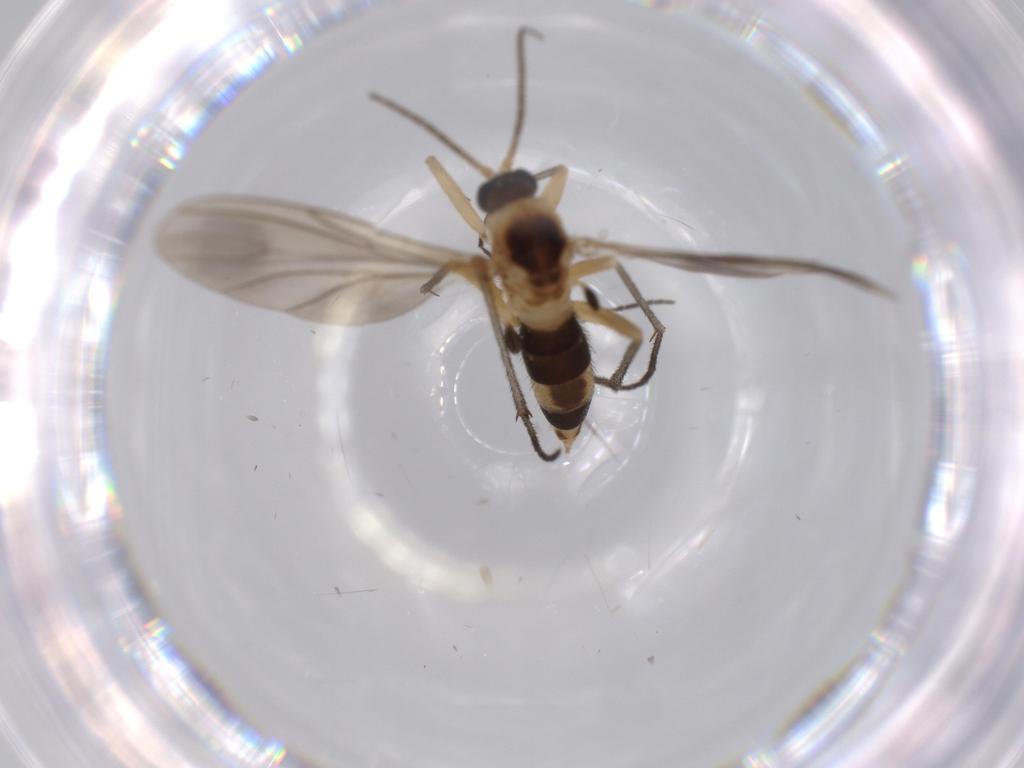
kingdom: Animalia
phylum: Arthropoda
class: Insecta
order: Diptera
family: Sciaridae
